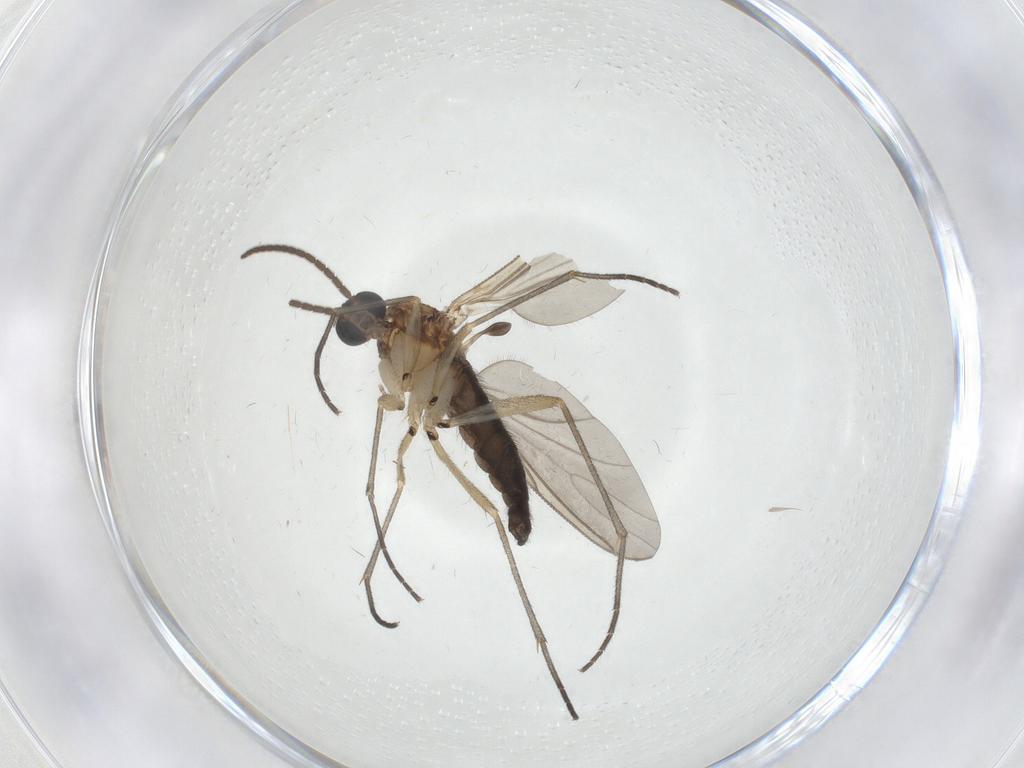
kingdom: Animalia
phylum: Arthropoda
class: Insecta
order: Diptera
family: Sciaridae
